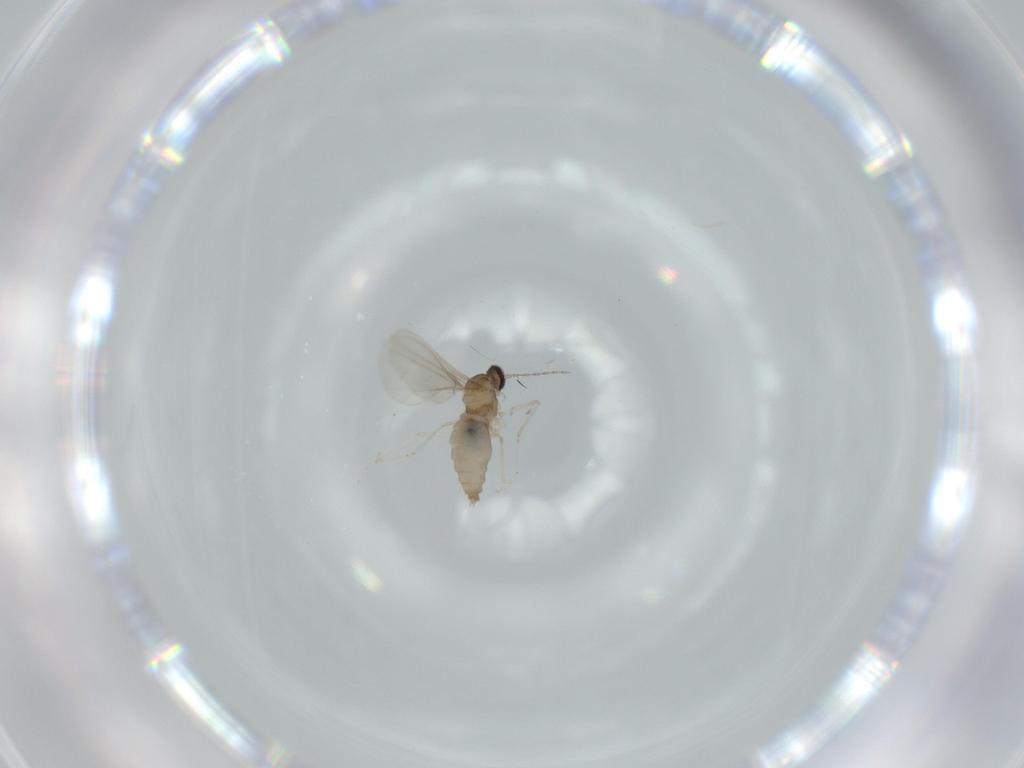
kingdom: Animalia
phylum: Arthropoda
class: Insecta
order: Diptera
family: Cecidomyiidae
